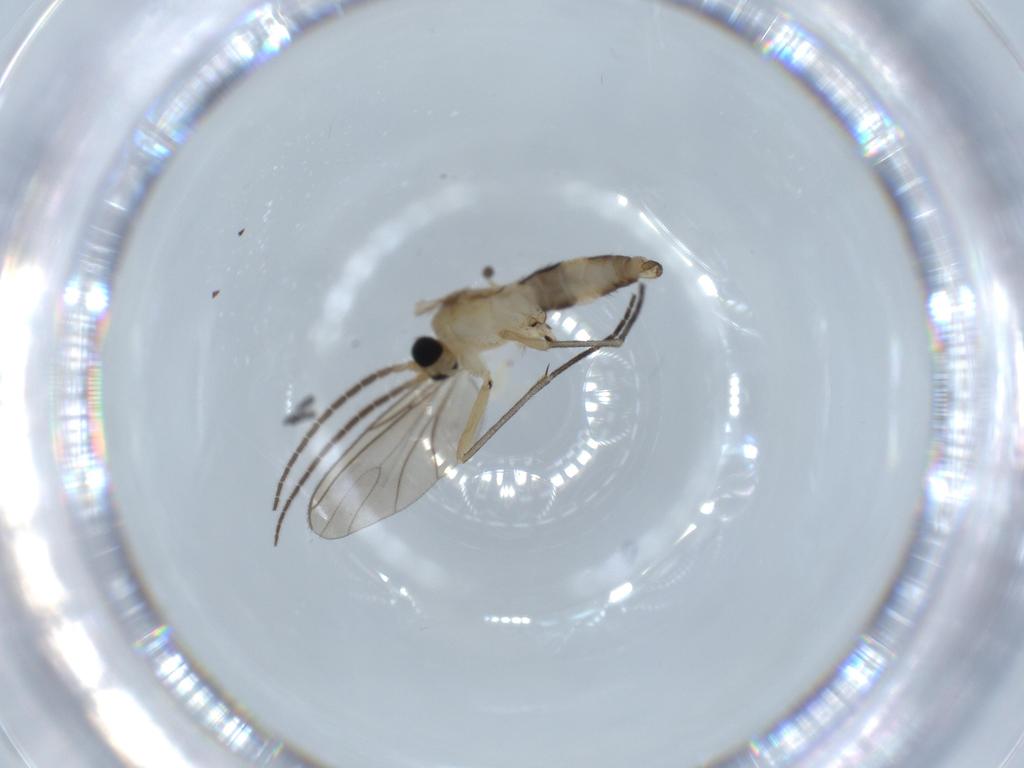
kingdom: Animalia
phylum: Arthropoda
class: Insecta
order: Diptera
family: Sciaridae
